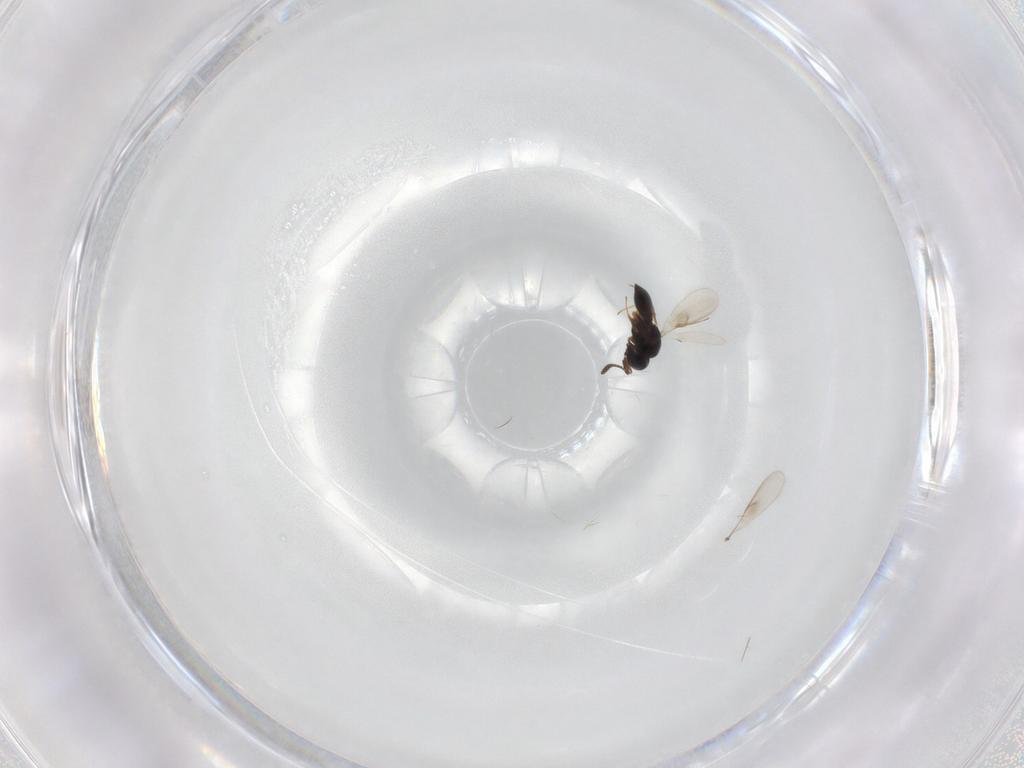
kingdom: Animalia
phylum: Arthropoda
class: Insecta
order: Hymenoptera
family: Scelionidae
